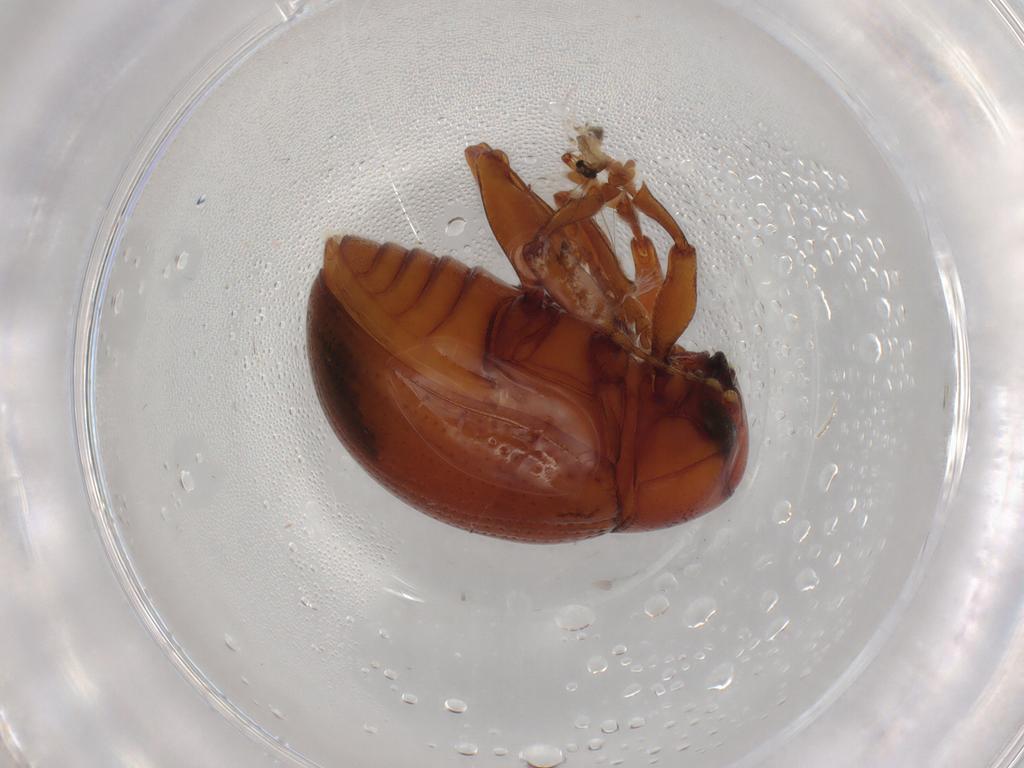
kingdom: Animalia
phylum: Arthropoda
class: Insecta
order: Coleoptera
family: Chrysomelidae
